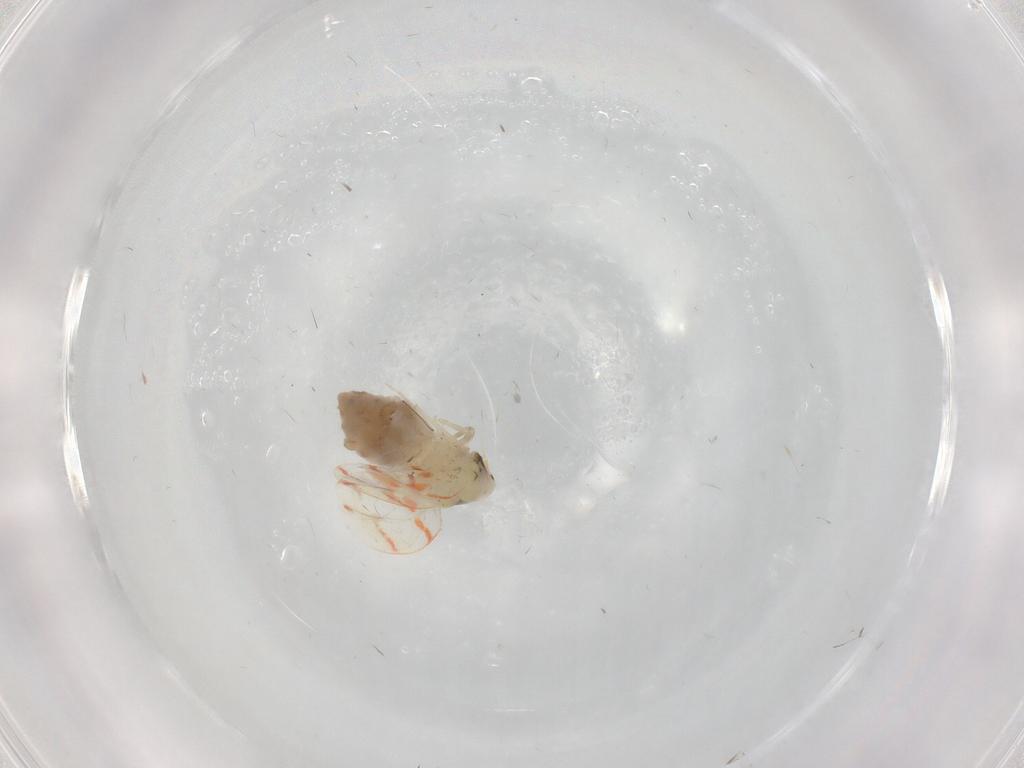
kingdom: Animalia
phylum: Arthropoda
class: Insecta
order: Hemiptera
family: Aleyrodidae
